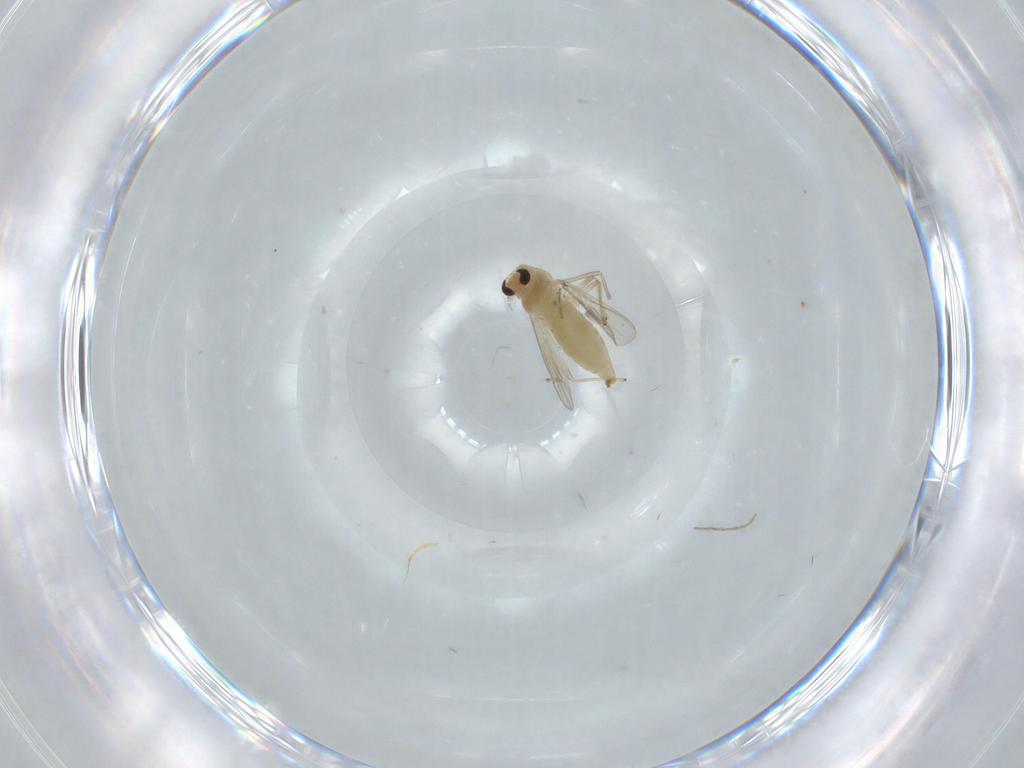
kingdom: Animalia
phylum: Arthropoda
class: Insecta
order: Diptera
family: Chironomidae
